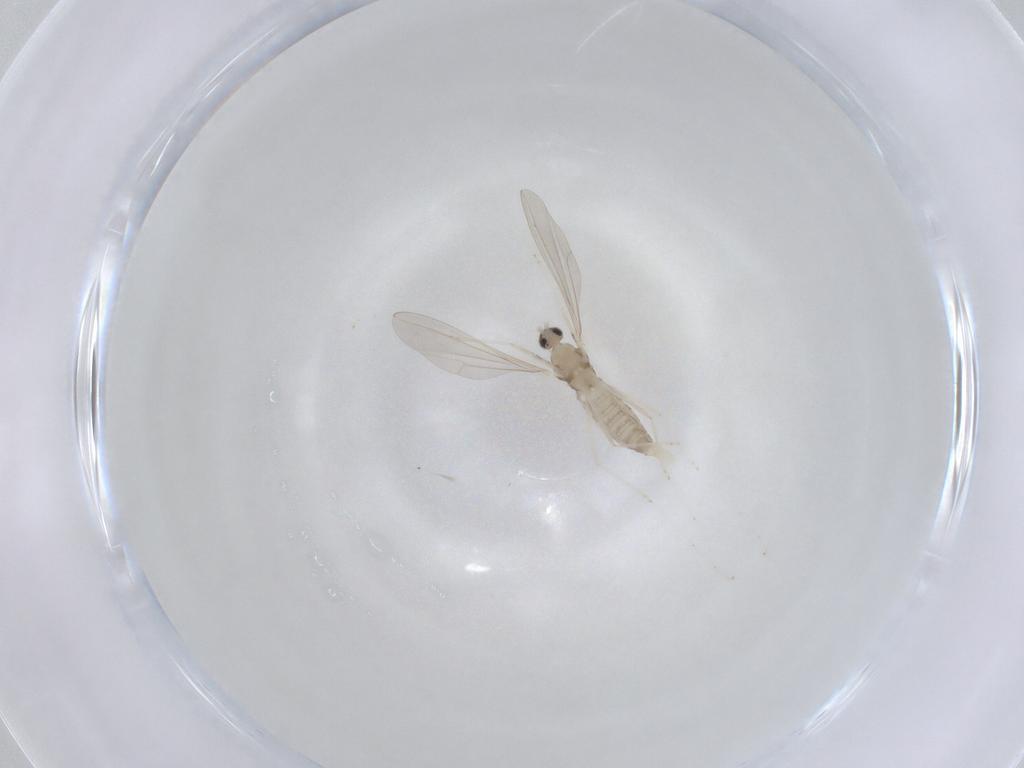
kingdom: Animalia
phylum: Arthropoda
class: Insecta
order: Diptera
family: Cecidomyiidae
